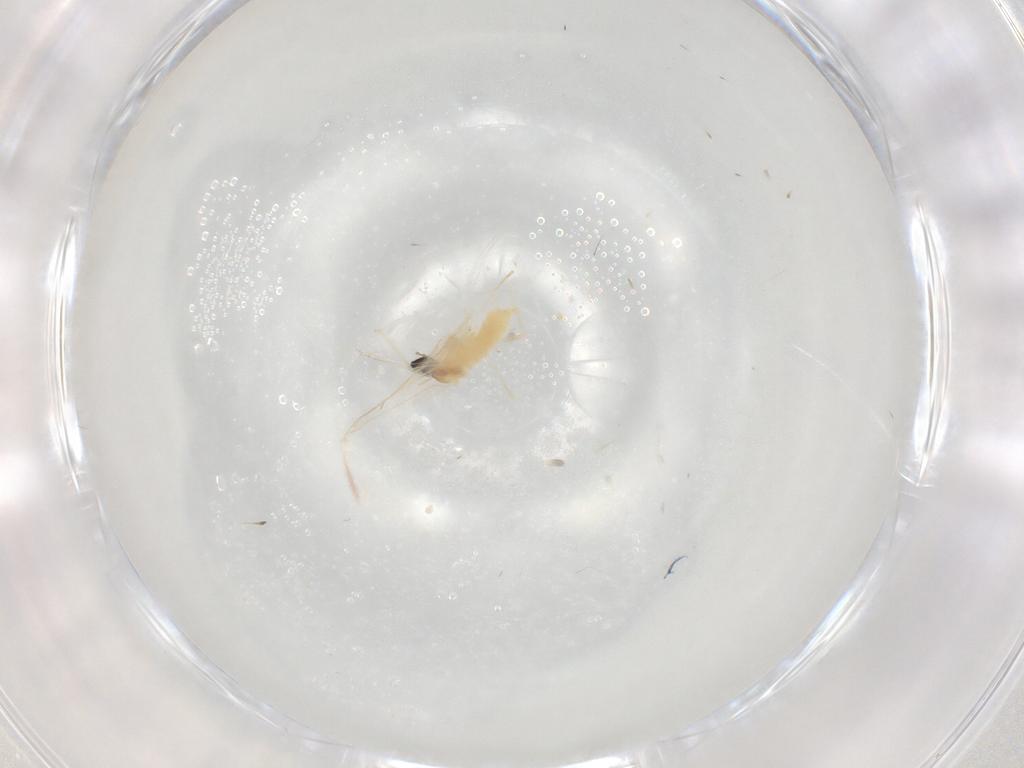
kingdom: Animalia
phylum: Arthropoda
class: Insecta
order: Diptera
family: Cecidomyiidae
